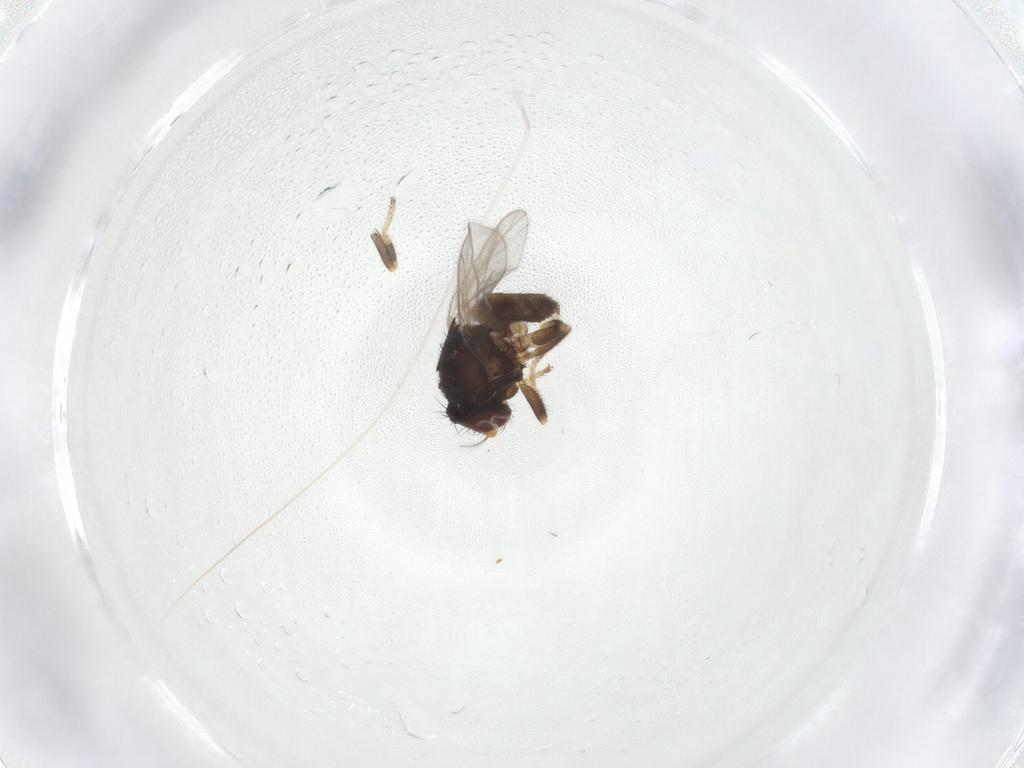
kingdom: Animalia
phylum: Arthropoda
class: Insecta
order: Diptera
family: Chloropidae
